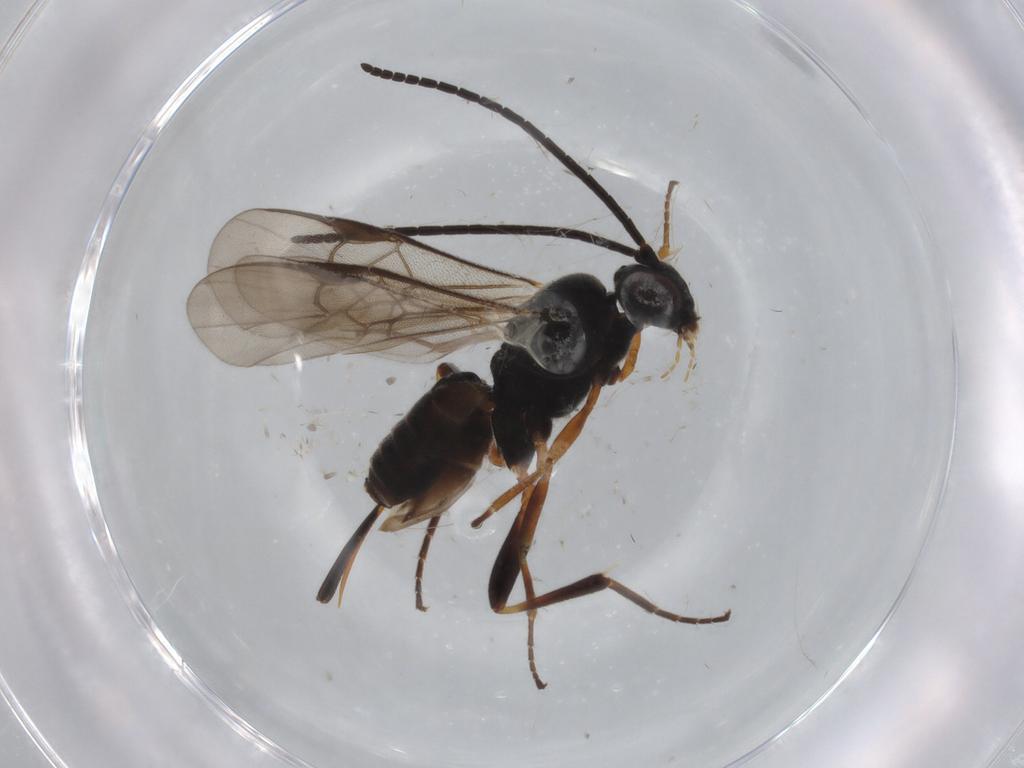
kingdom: Animalia
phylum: Arthropoda
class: Insecta
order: Hymenoptera
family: Braconidae
